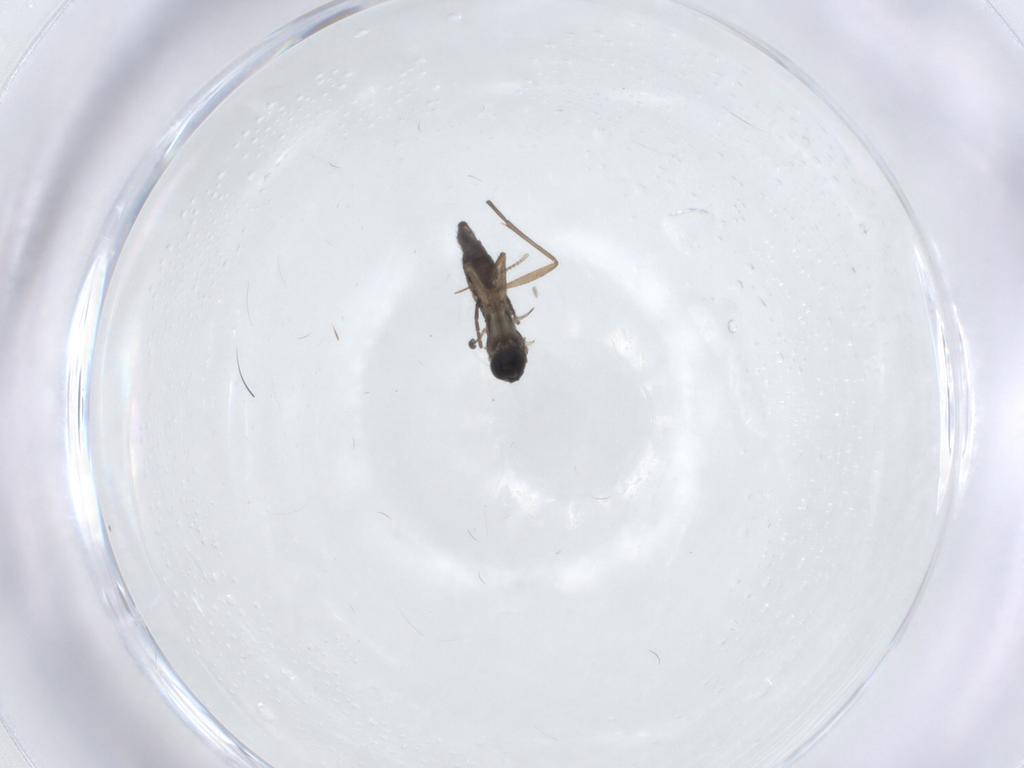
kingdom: Animalia
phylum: Arthropoda
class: Insecta
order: Diptera
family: Sciaridae
